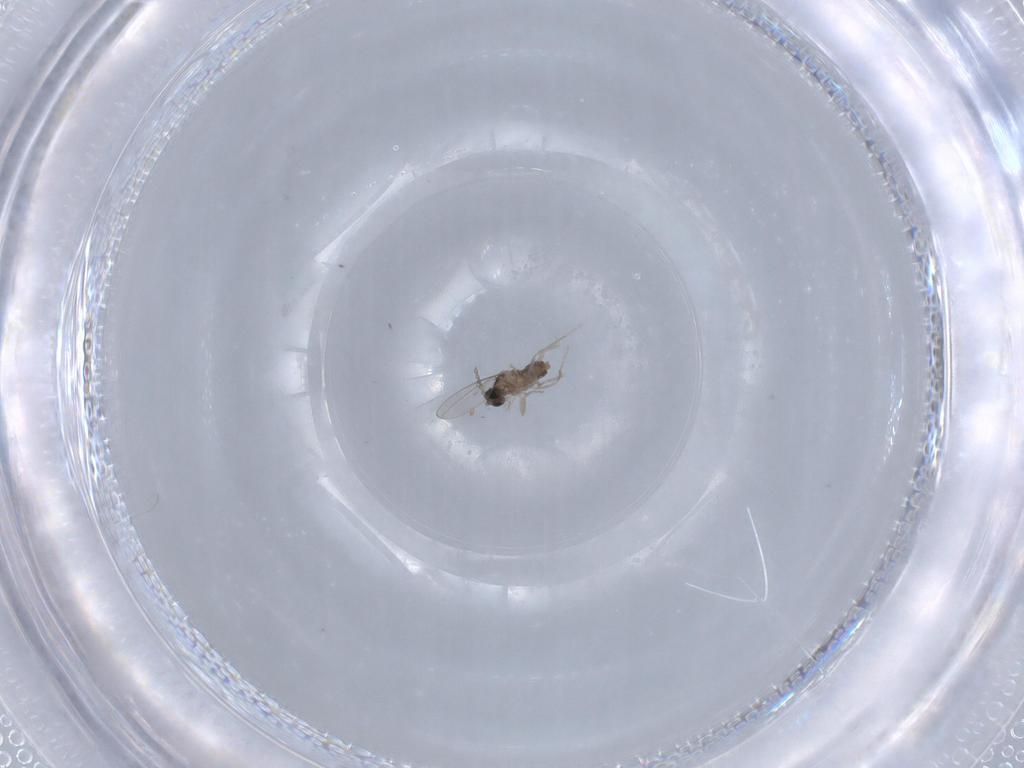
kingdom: Animalia
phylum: Arthropoda
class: Insecta
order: Diptera
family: Cecidomyiidae
